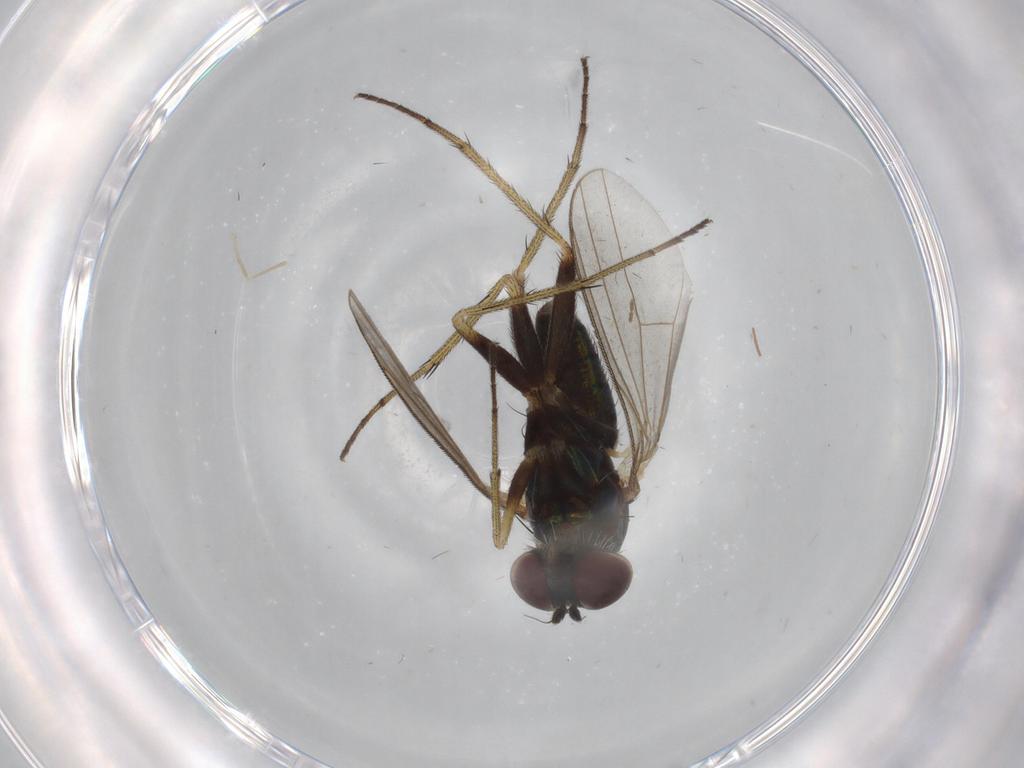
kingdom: Animalia
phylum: Arthropoda
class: Insecta
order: Diptera
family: Dolichopodidae
